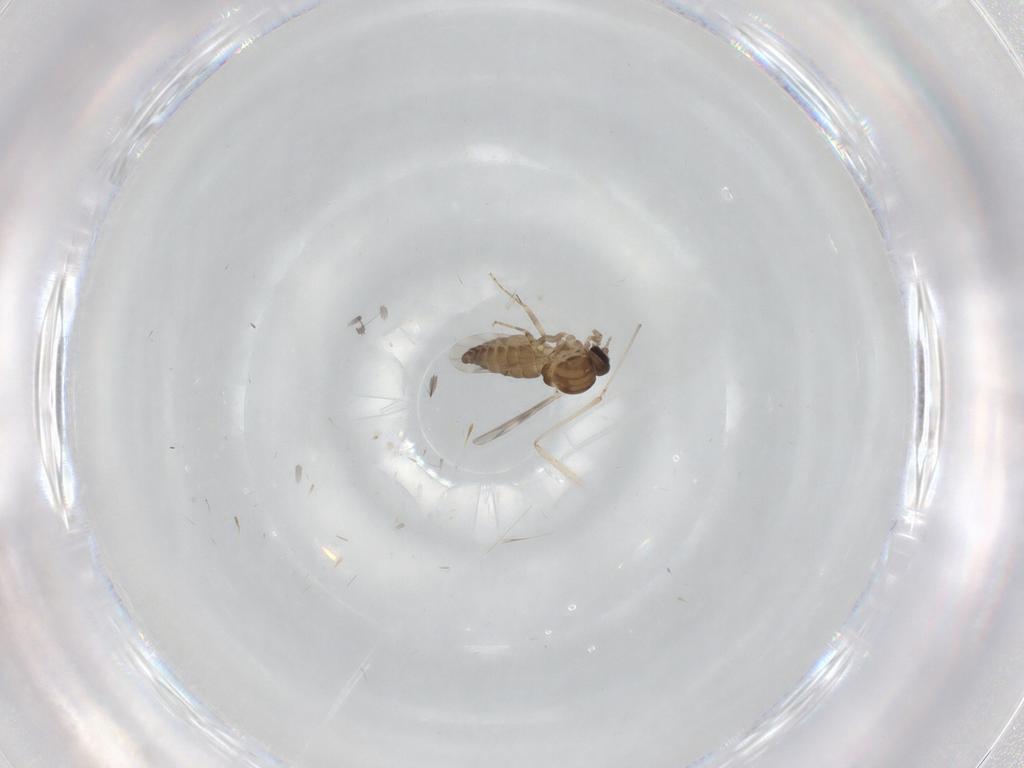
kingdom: Animalia
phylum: Arthropoda
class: Insecta
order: Diptera
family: Ceratopogonidae
